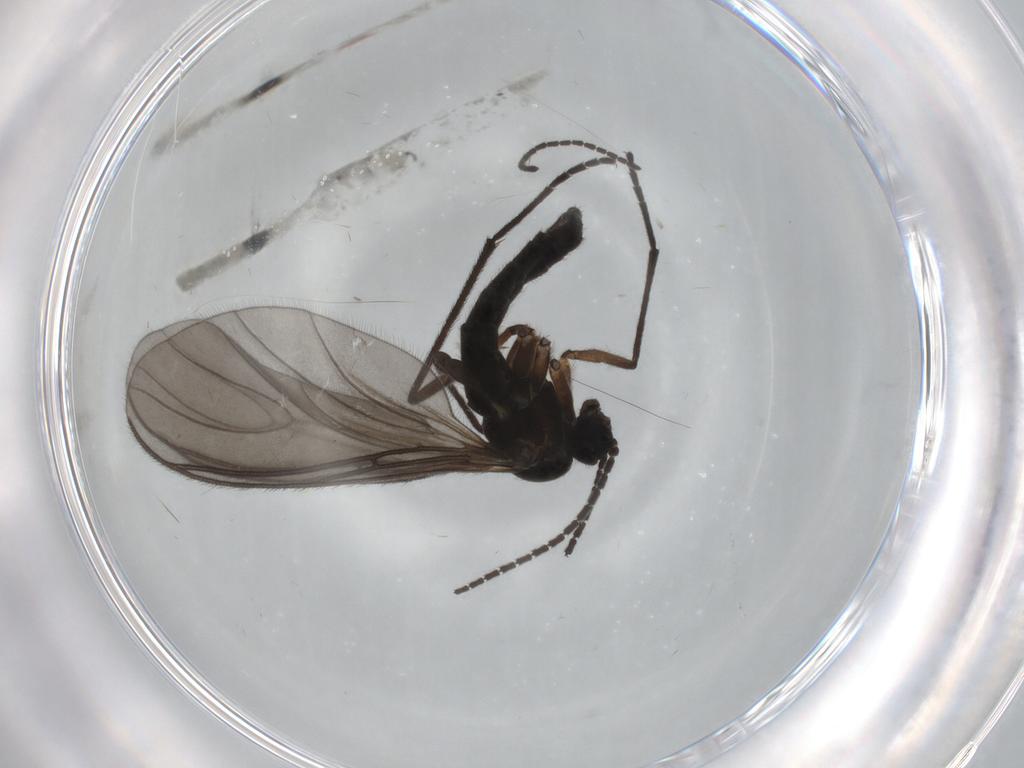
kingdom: Animalia
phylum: Arthropoda
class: Insecta
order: Diptera
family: Sciaridae
